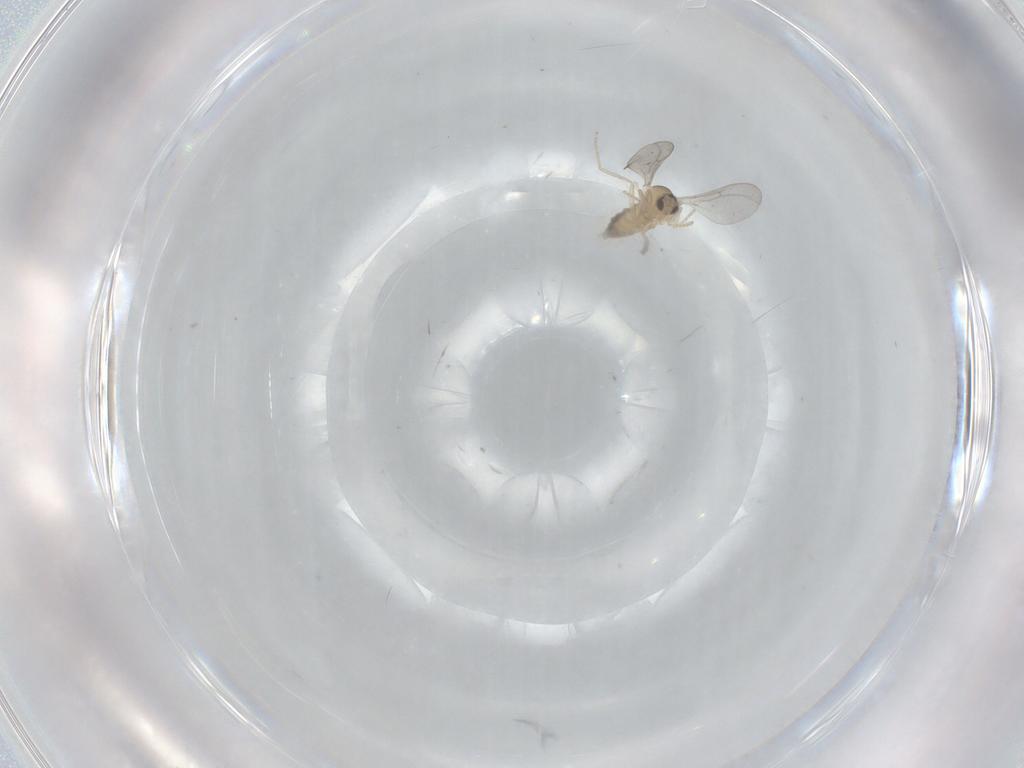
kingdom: Animalia
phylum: Arthropoda
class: Insecta
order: Diptera
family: Cecidomyiidae
